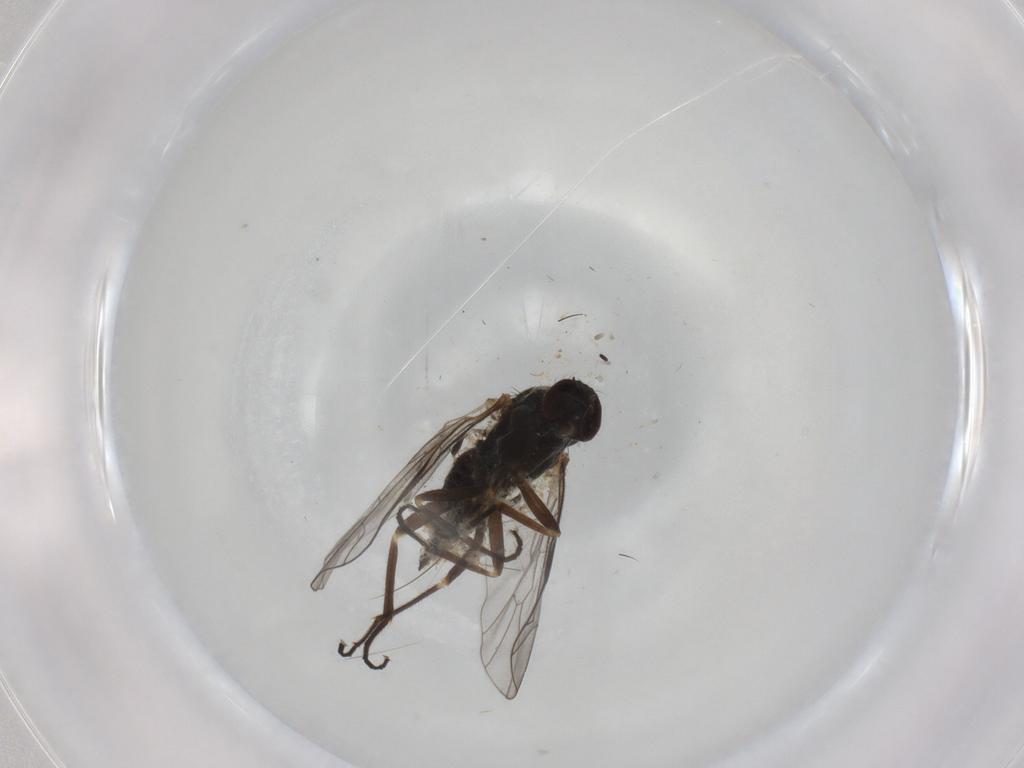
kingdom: Animalia
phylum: Arthropoda
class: Insecta
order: Diptera
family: Empididae
